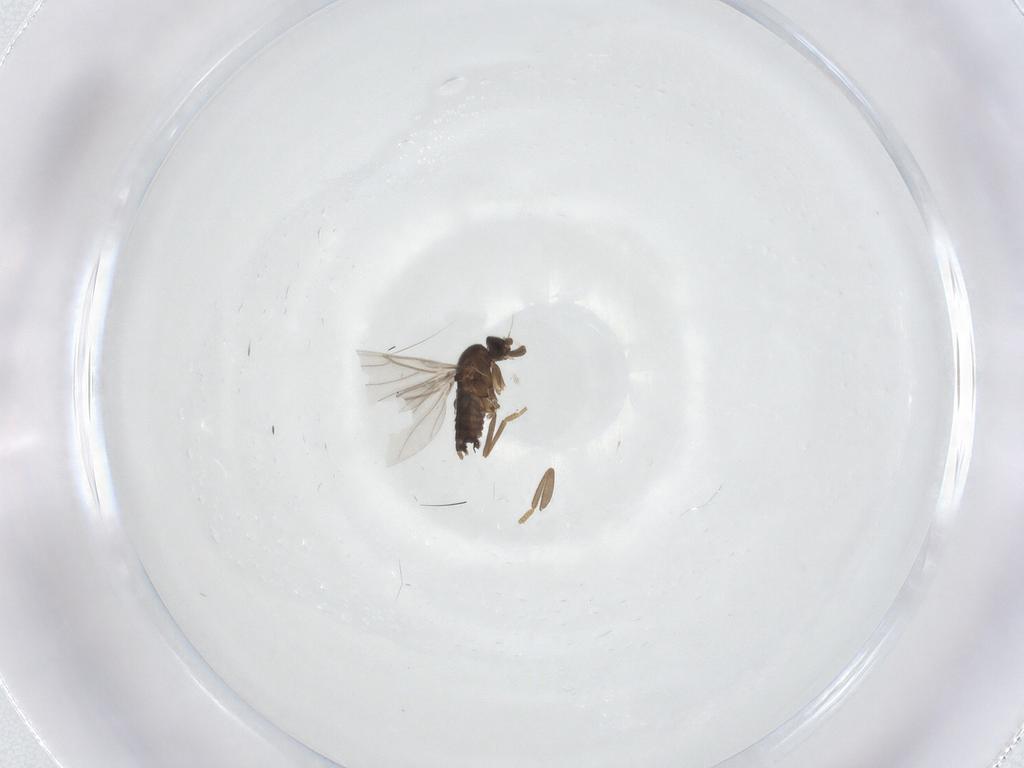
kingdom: Animalia
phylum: Arthropoda
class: Insecta
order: Diptera
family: Phoridae
